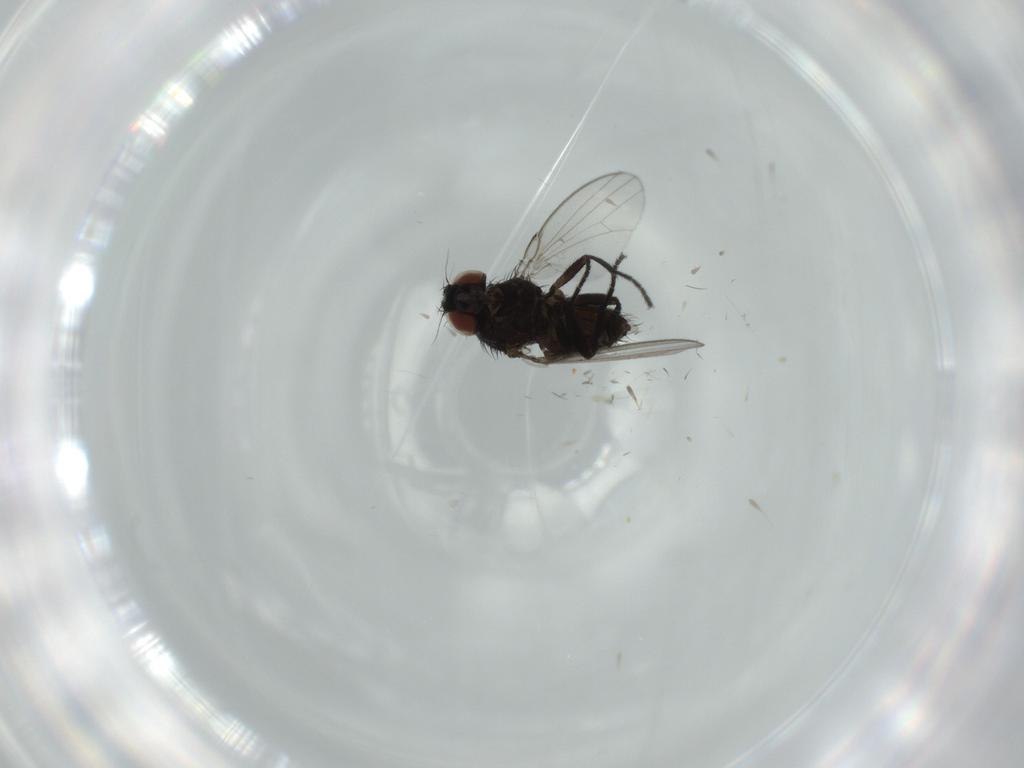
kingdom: Animalia
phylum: Arthropoda
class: Insecta
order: Diptera
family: Milichiidae
